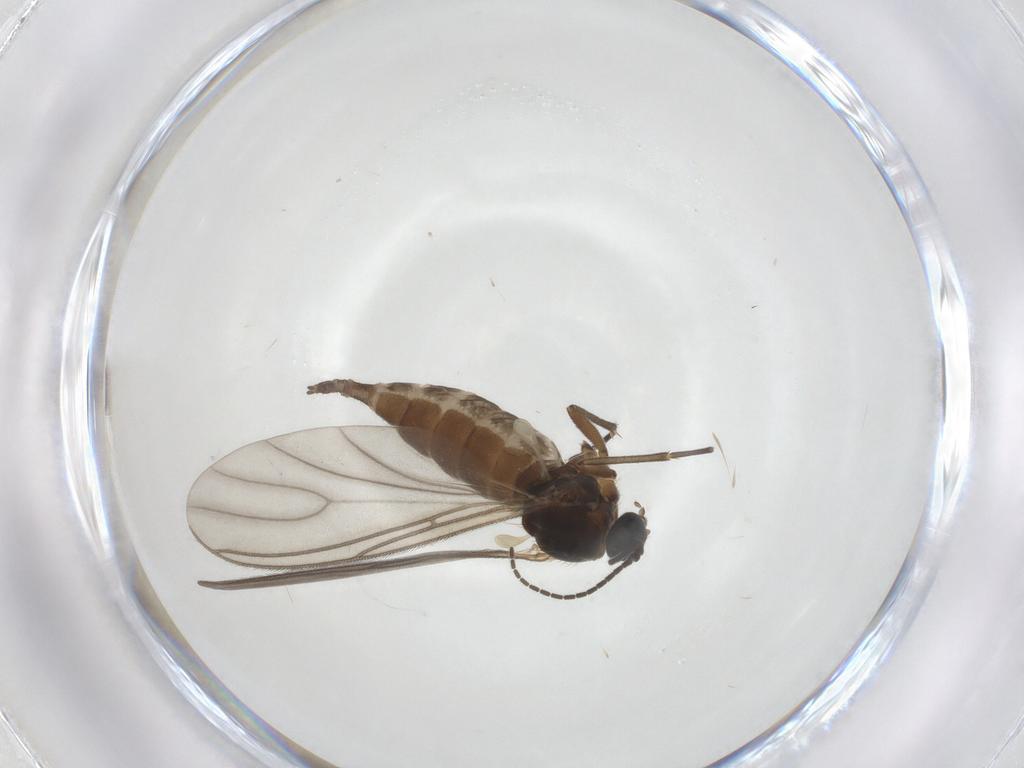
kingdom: Animalia
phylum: Arthropoda
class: Insecta
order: Diptera
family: Sciaridae
